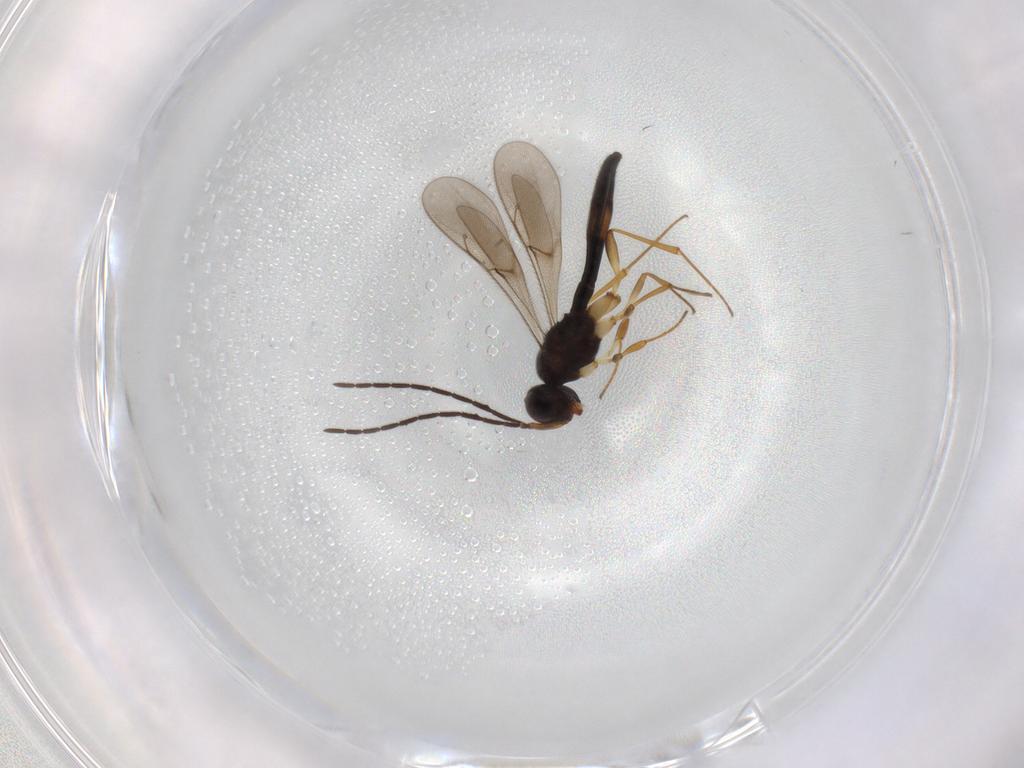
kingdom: Animalia
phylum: Arthropoda
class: Insecta
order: Hymenoptera
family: Scelionidae
